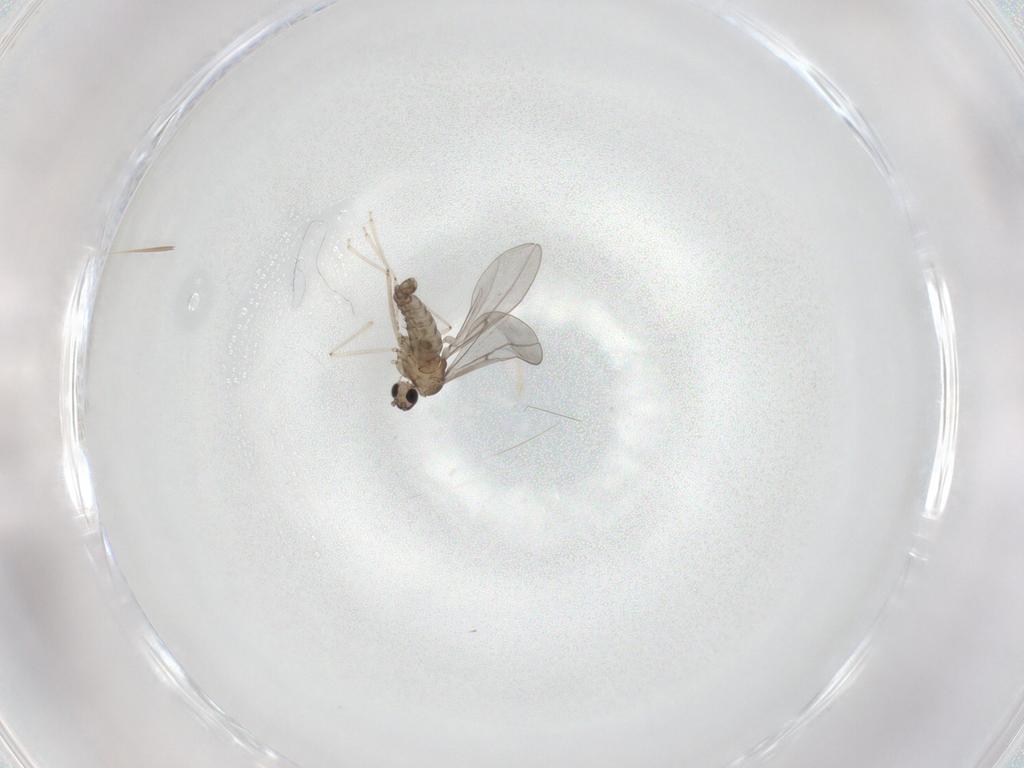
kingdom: Animalia
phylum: Arthropoda
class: Insecta
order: Diptera
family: Cecidomyiidae
